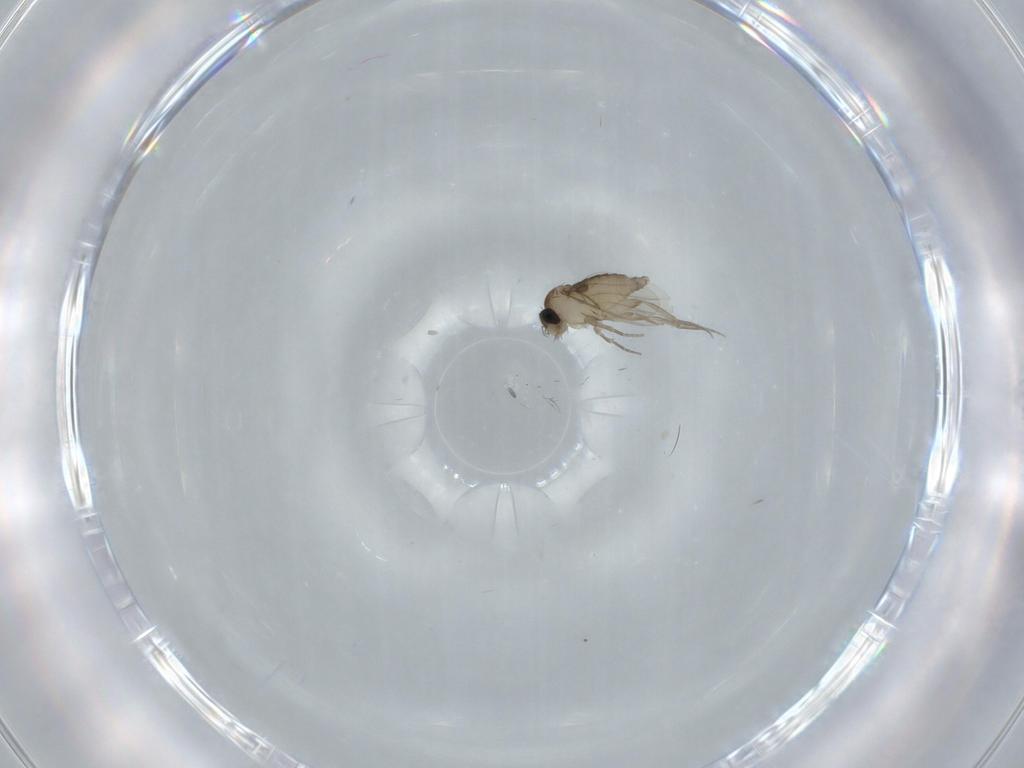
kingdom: Animalia
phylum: Arthropoda
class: Insecta
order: Diptera
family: Phoridae
